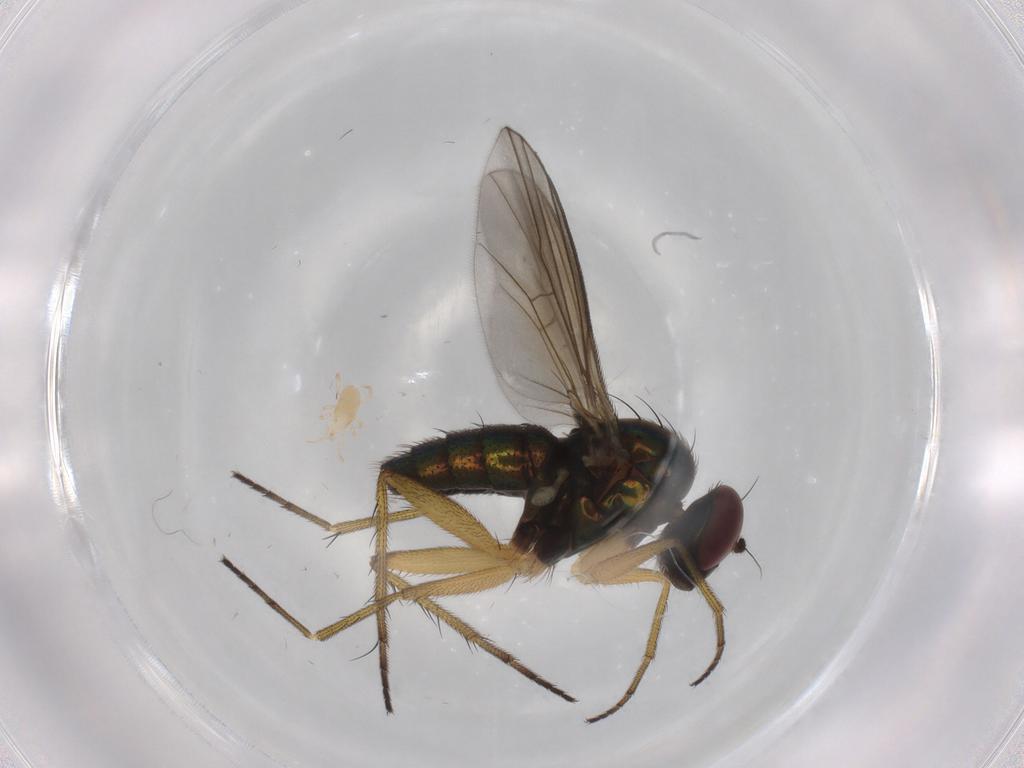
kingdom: Animalia
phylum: Arthropoda
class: Insecta
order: Diptera
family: Dolichopodidae
